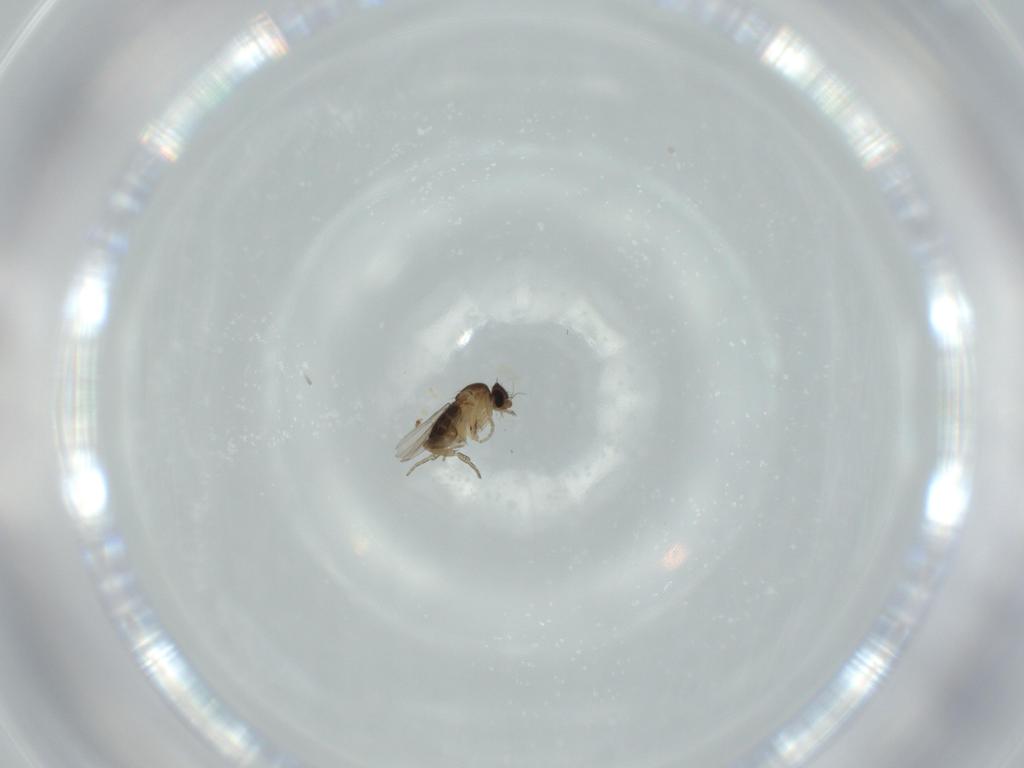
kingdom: Animalia
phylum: Arthropoda
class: Insecta
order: Diptera
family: Phoridae
